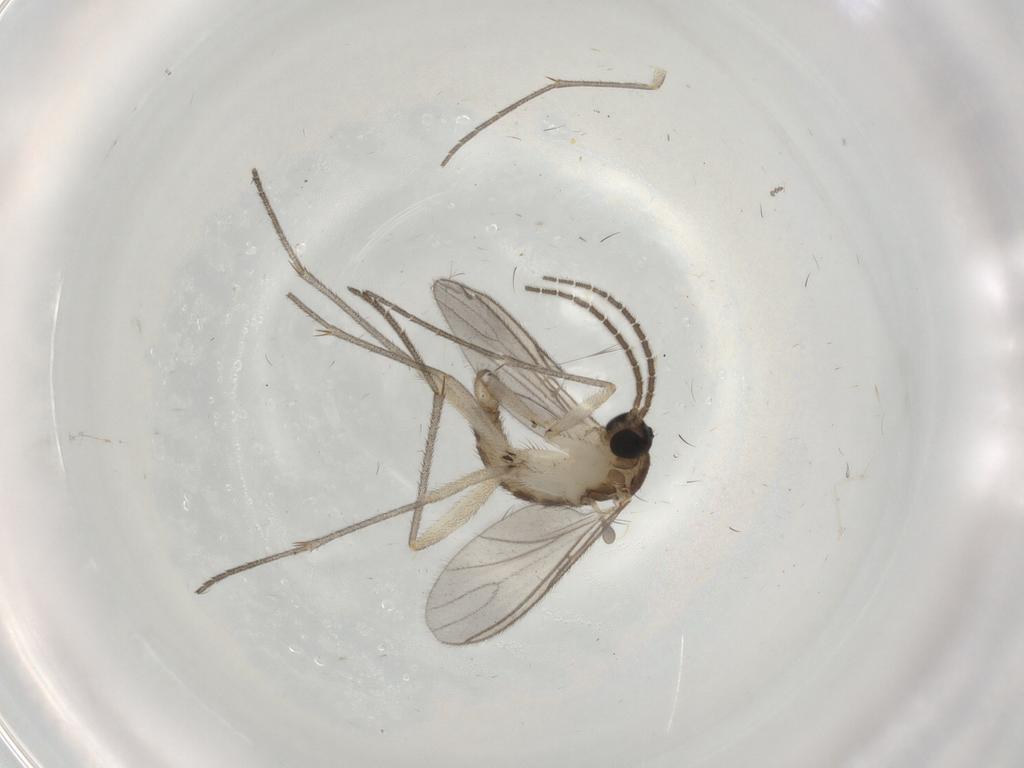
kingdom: Animalia
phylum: Arthropoda
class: Insecta
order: Diptera
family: Sciaridae
